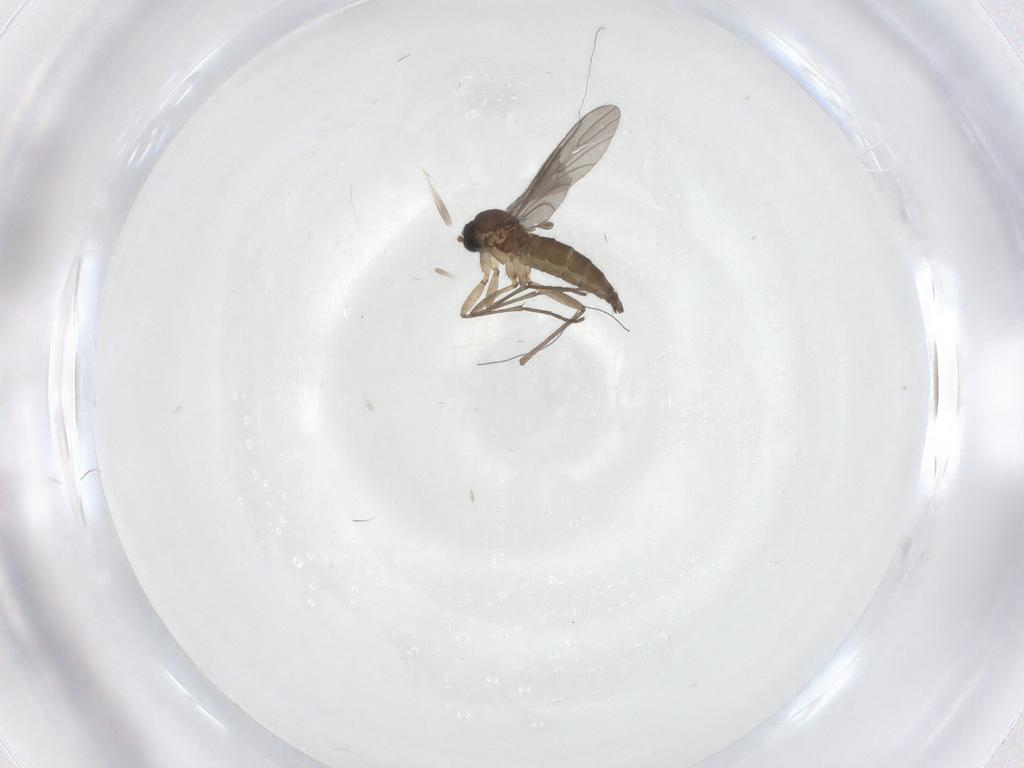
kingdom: Animalia
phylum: Arthropoda
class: Insecta
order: Diptera
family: Sciaridae
